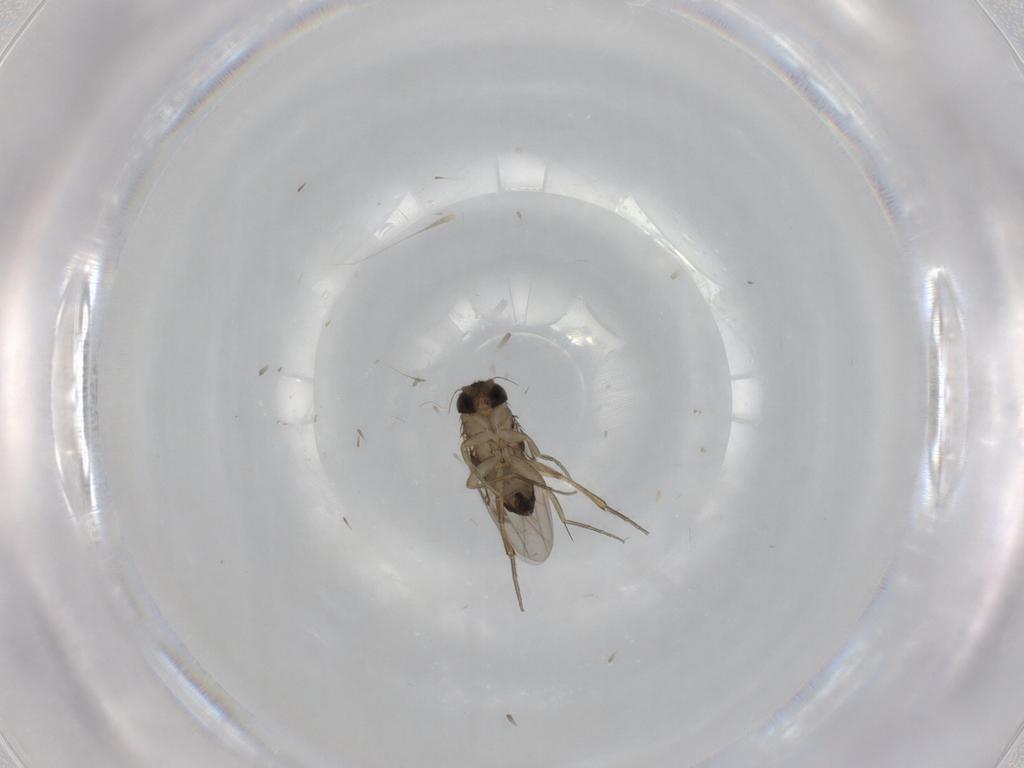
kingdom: Animalia
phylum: Arthropoda
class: Insecta
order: Diptera
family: Phoridae
